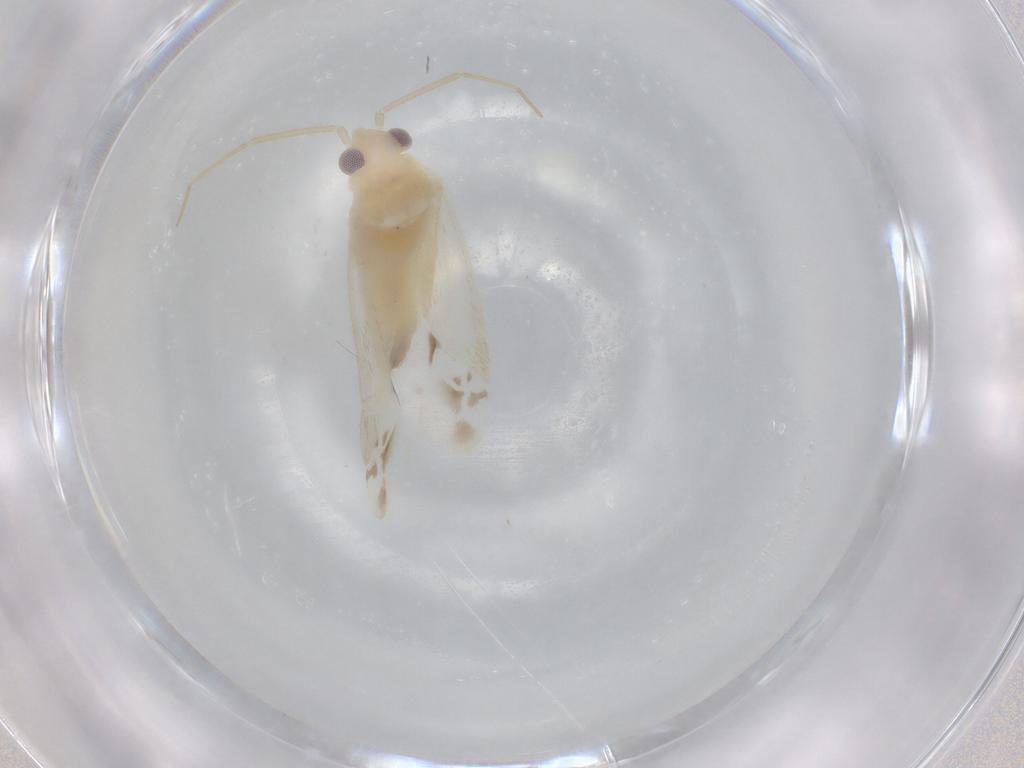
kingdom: Animalia
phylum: Arthropoda
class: Insecta
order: Hemiptera
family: Miridae
